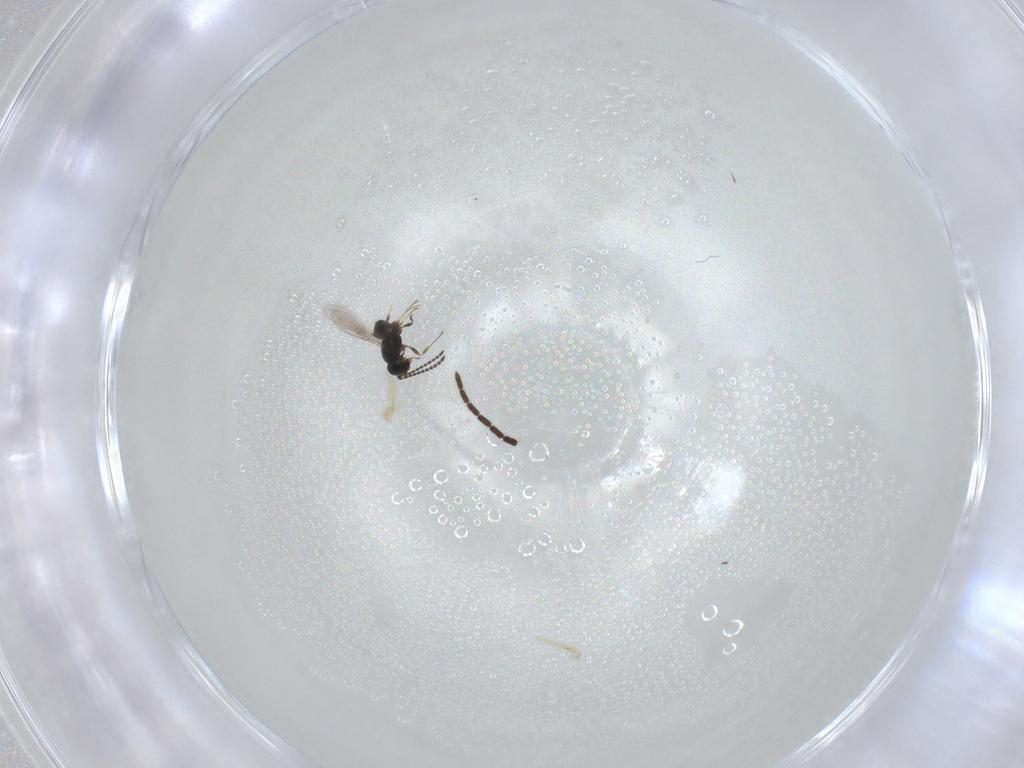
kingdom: Animalia
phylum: Arthropoda
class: Insecta
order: Hymenoptera
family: Scelionidae
